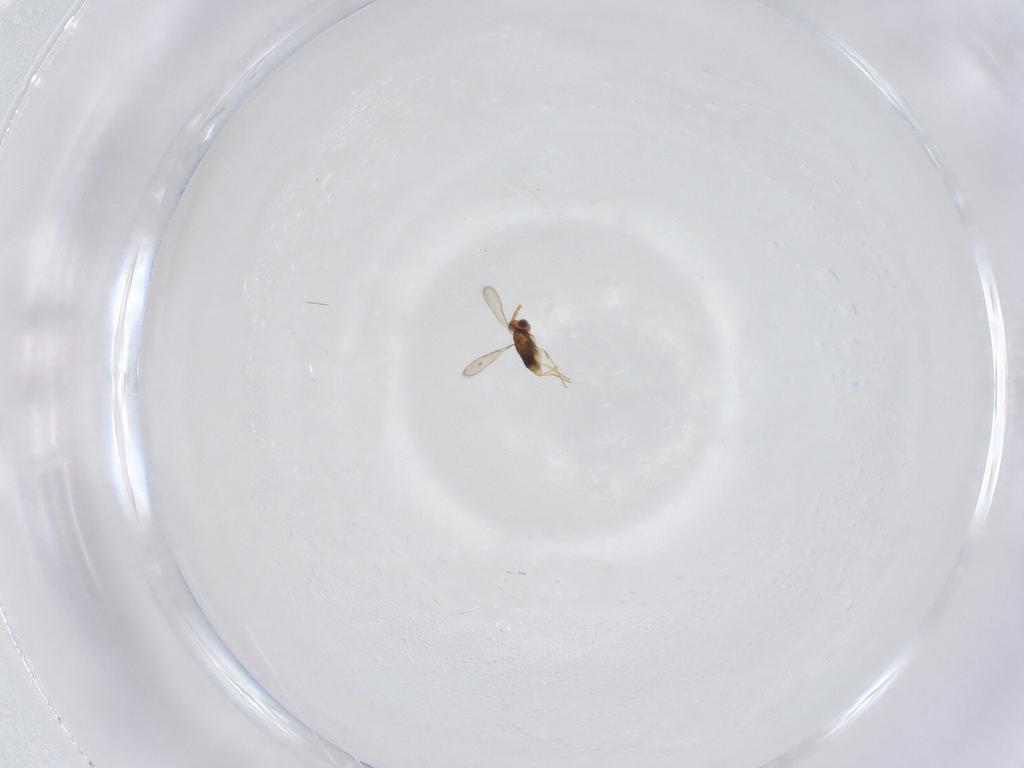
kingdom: Animalia
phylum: Arthropoda
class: Insecta
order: Hymenoptera
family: Aphelinidae
